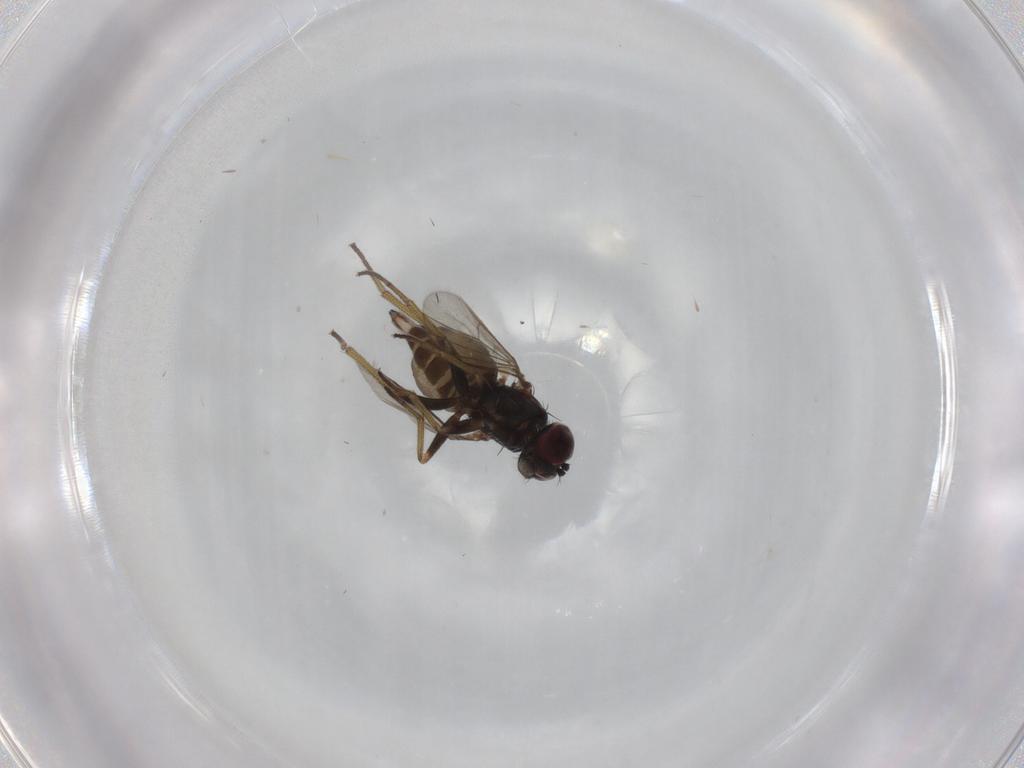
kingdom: Animalia
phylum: Arthropoda
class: Insecta
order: Diptera
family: Dolichopodidae
